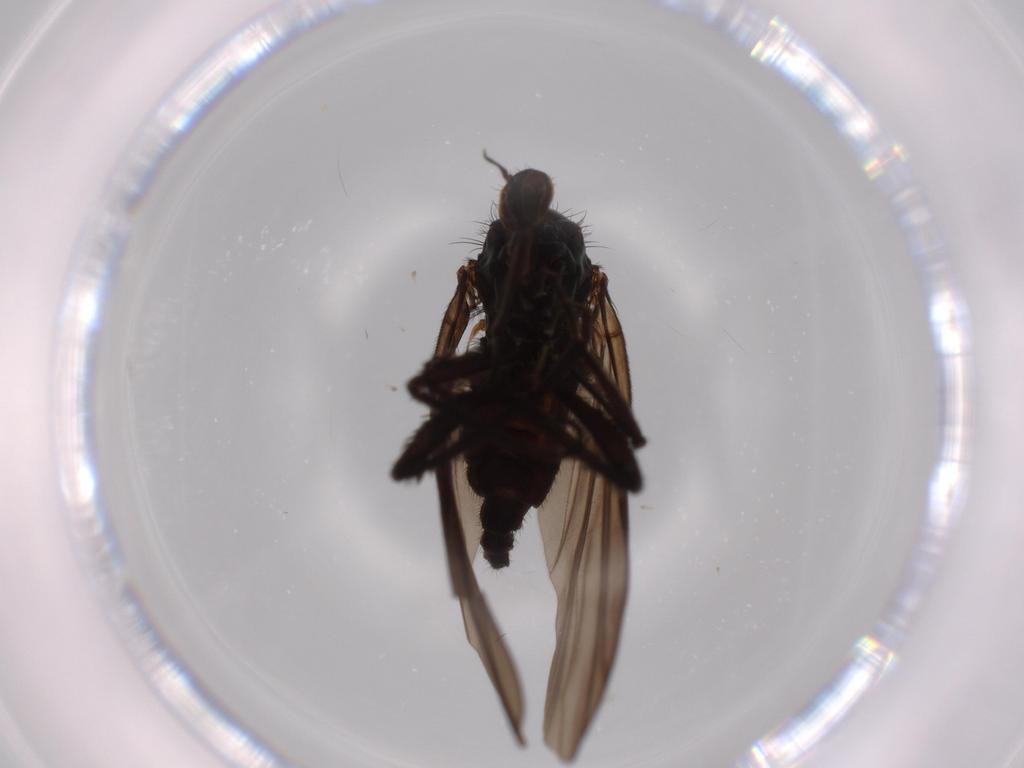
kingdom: Animalia
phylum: Arthropoda
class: Insecta
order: Diptera
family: Empididae
